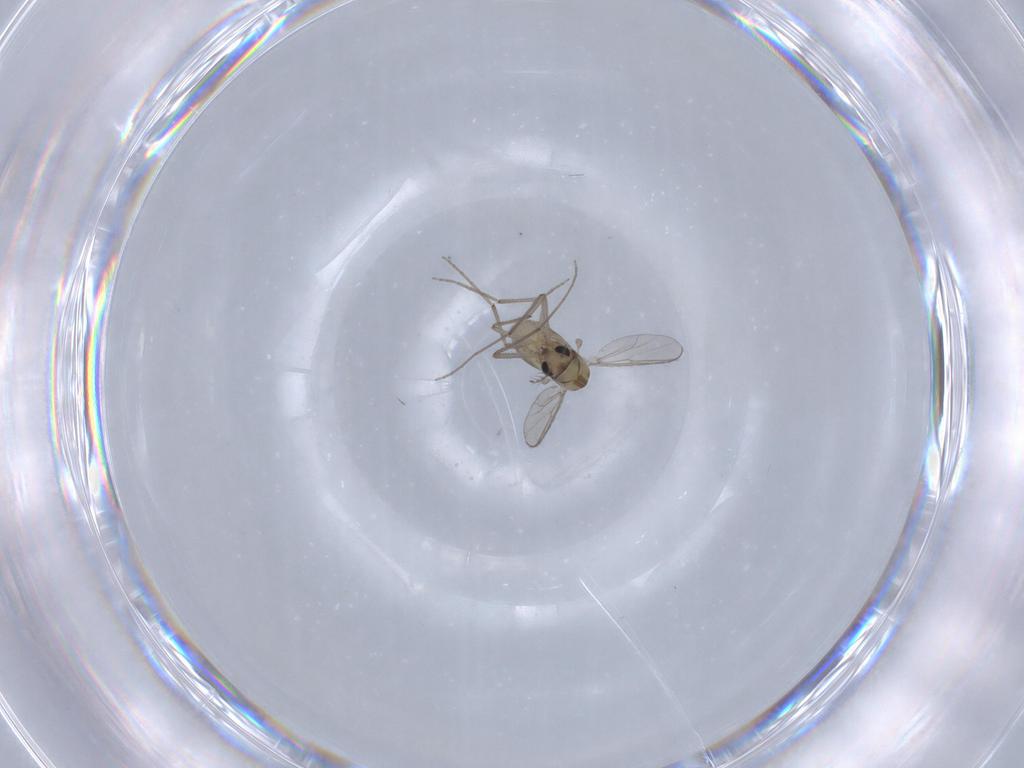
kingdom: Animalia
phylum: Arthropoda
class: Insecta
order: Diptera
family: Chironomidae
